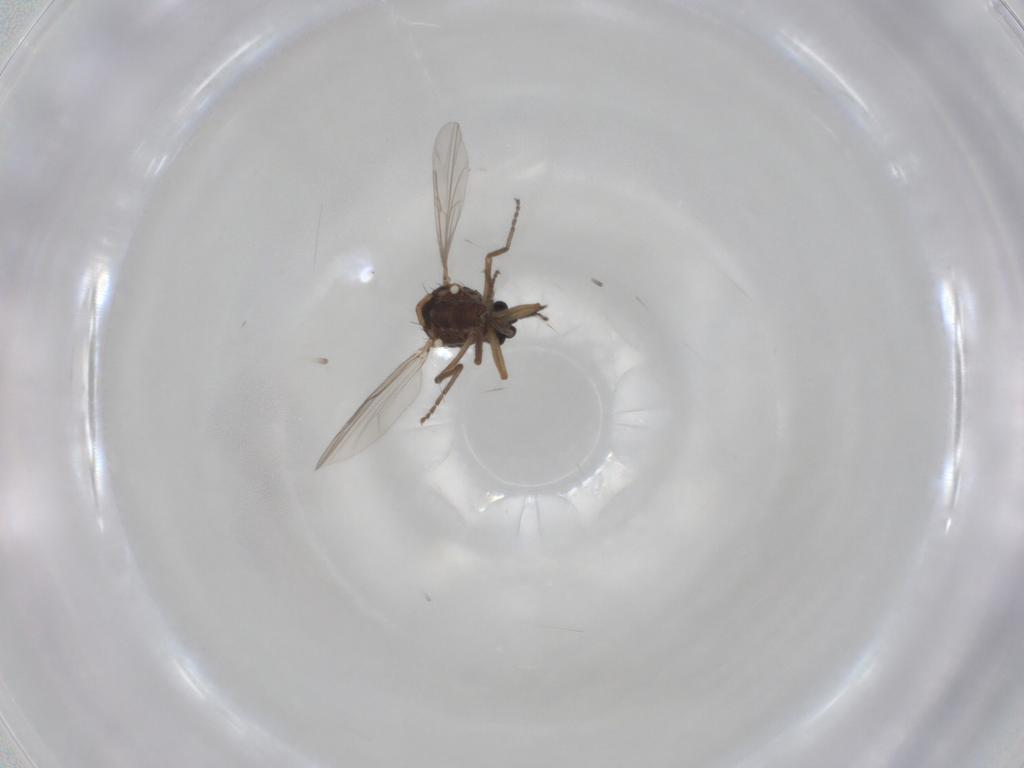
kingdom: Animalia
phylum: Arthropoda
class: Insecta
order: Diptera
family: Ceratopogonidae
